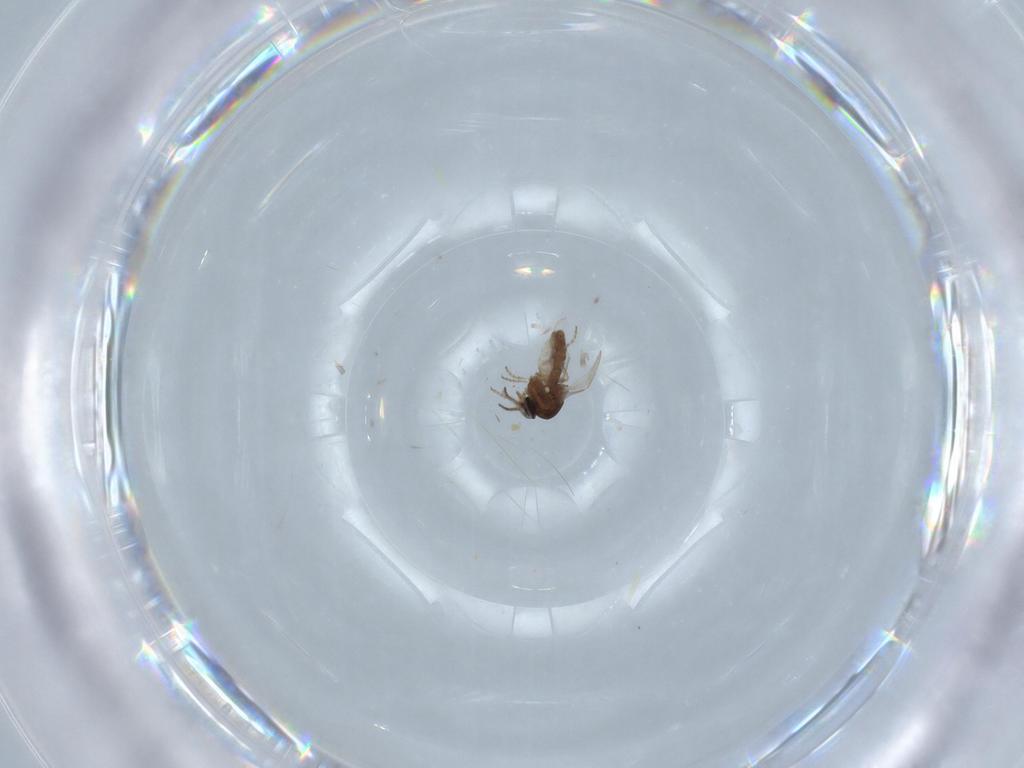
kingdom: Animalia
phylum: Arthropoda
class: Insecta
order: Diptera
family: Ceratopogonidae
